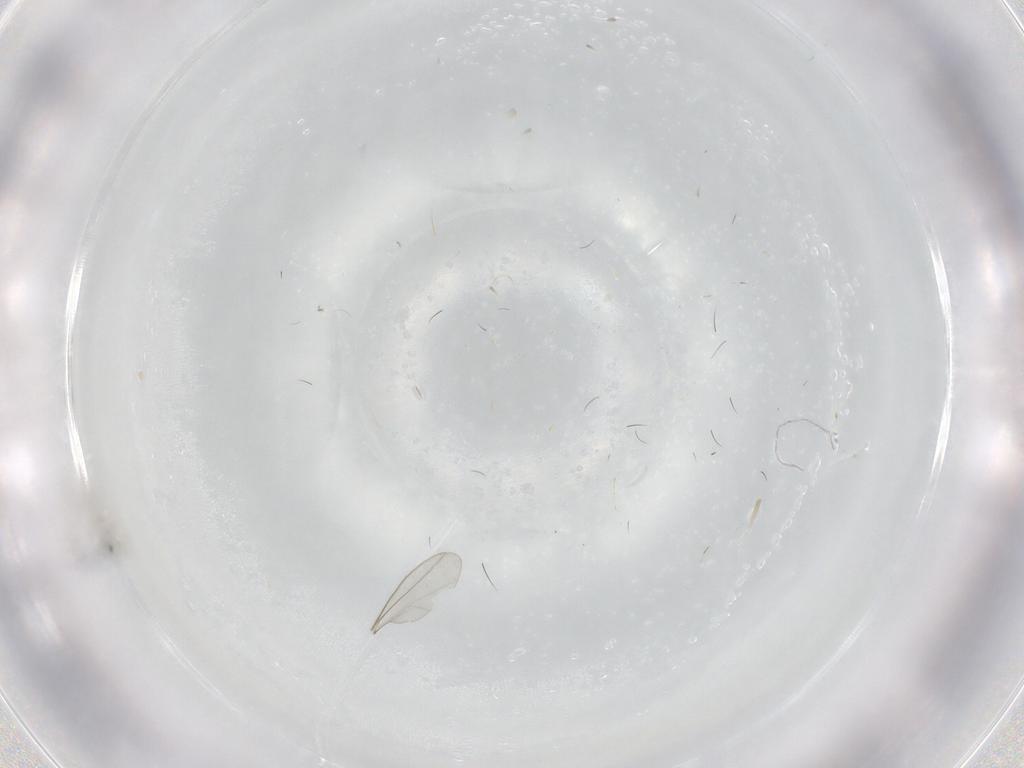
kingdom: Animalia
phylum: Arthropoda
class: Insecta
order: Diptera
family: Cecidomyiidae
